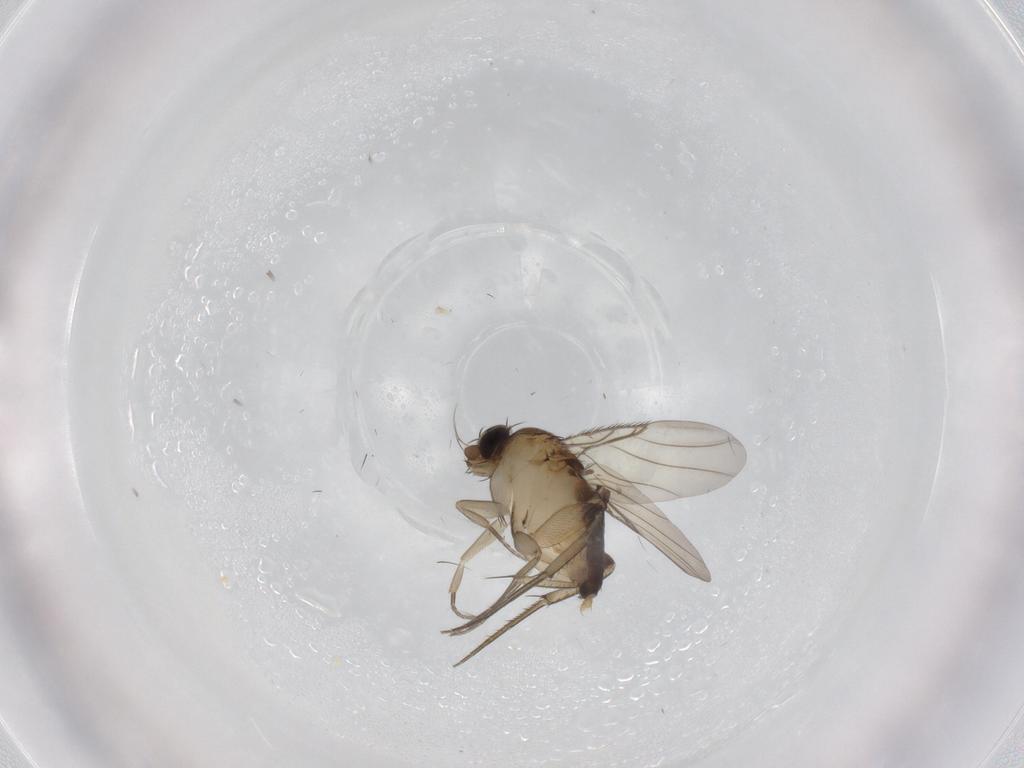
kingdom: Animalia
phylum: Arthropoda
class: Insecta
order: Diptera
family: Phoridae
